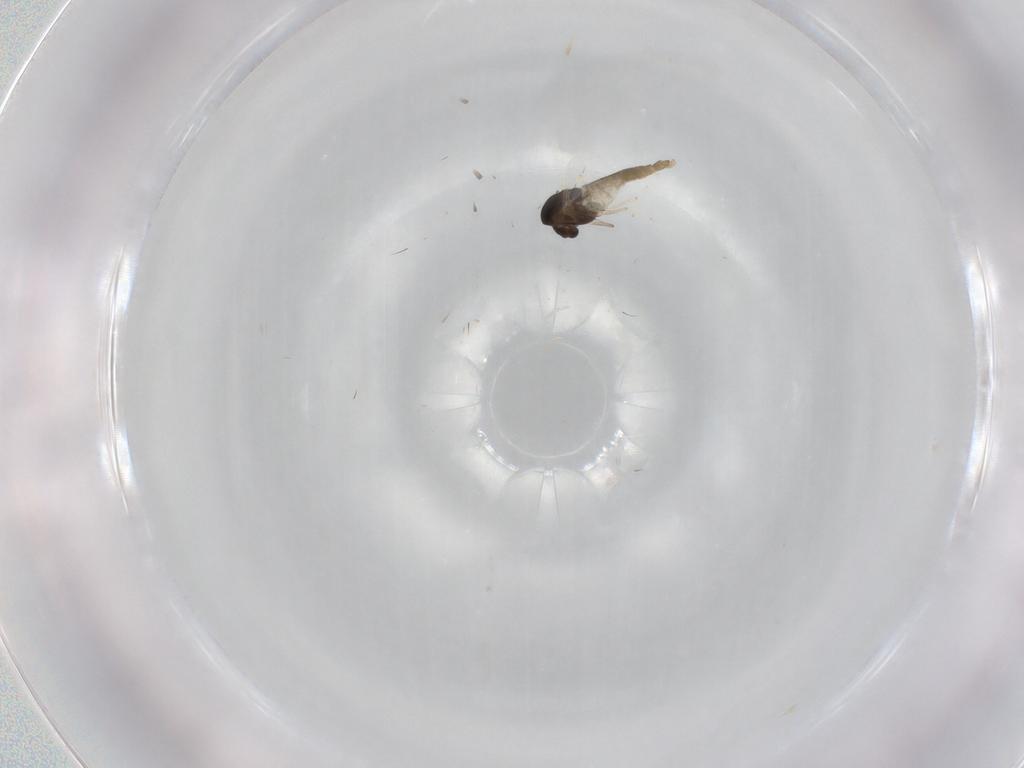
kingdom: Animalia
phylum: Arthropoda
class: Insecta
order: Diptera
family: Chironomidae
